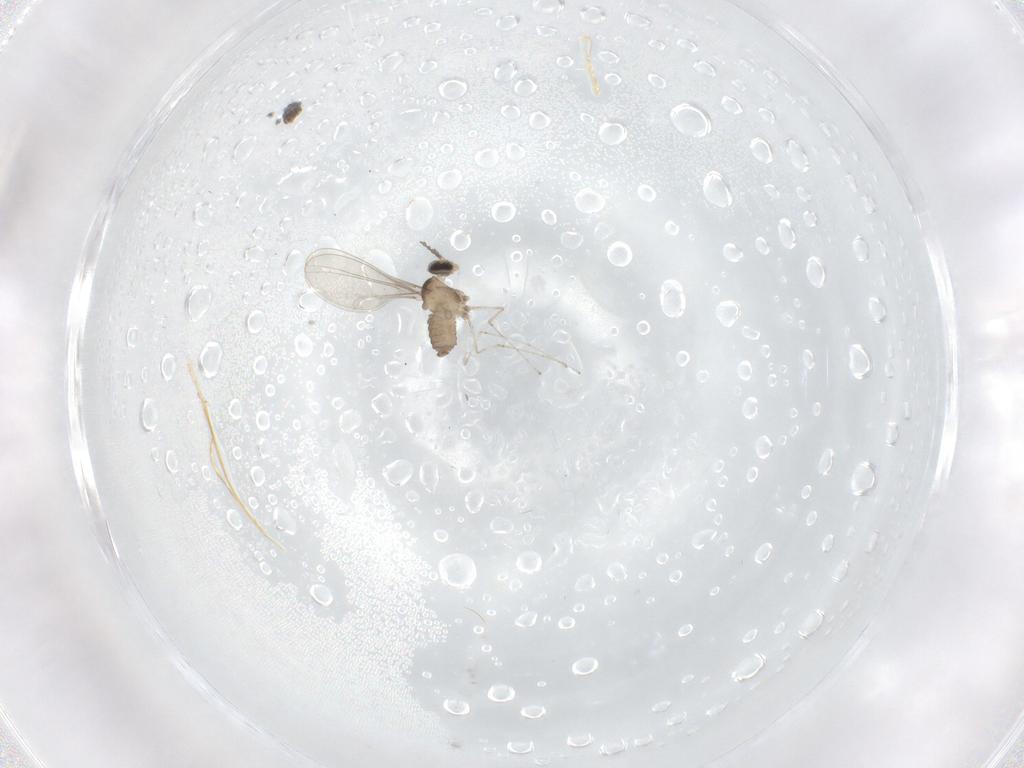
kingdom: Animalia
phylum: Arthropoda
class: Insecta
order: Diptera
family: Cecidomyiidae
